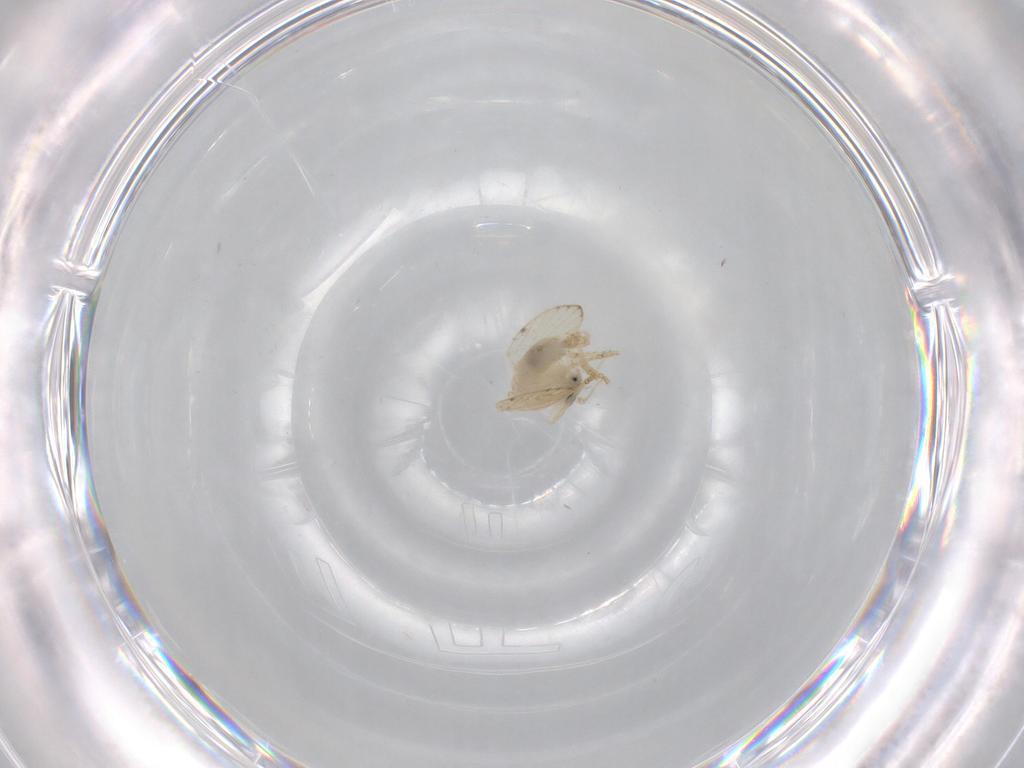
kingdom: Animalia
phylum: Arthropoda
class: Insecta
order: Diptera
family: Psychodidae
